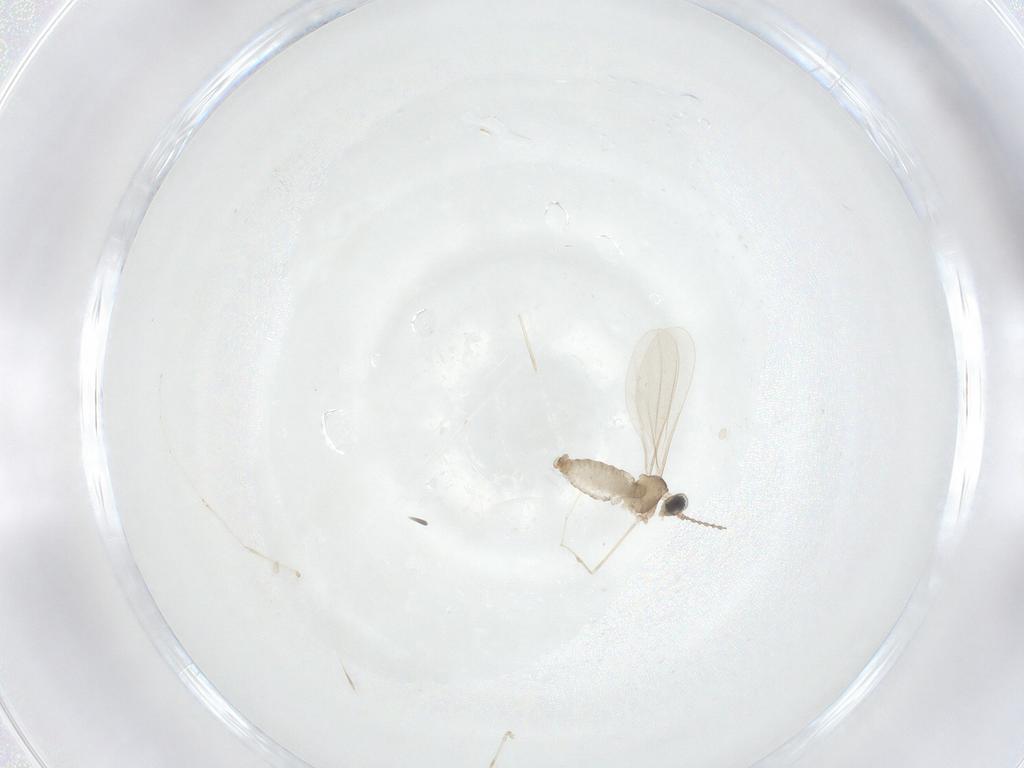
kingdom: Animalia
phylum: Arthropoda
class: Insecta
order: Diptera
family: Cecidomyiidae
